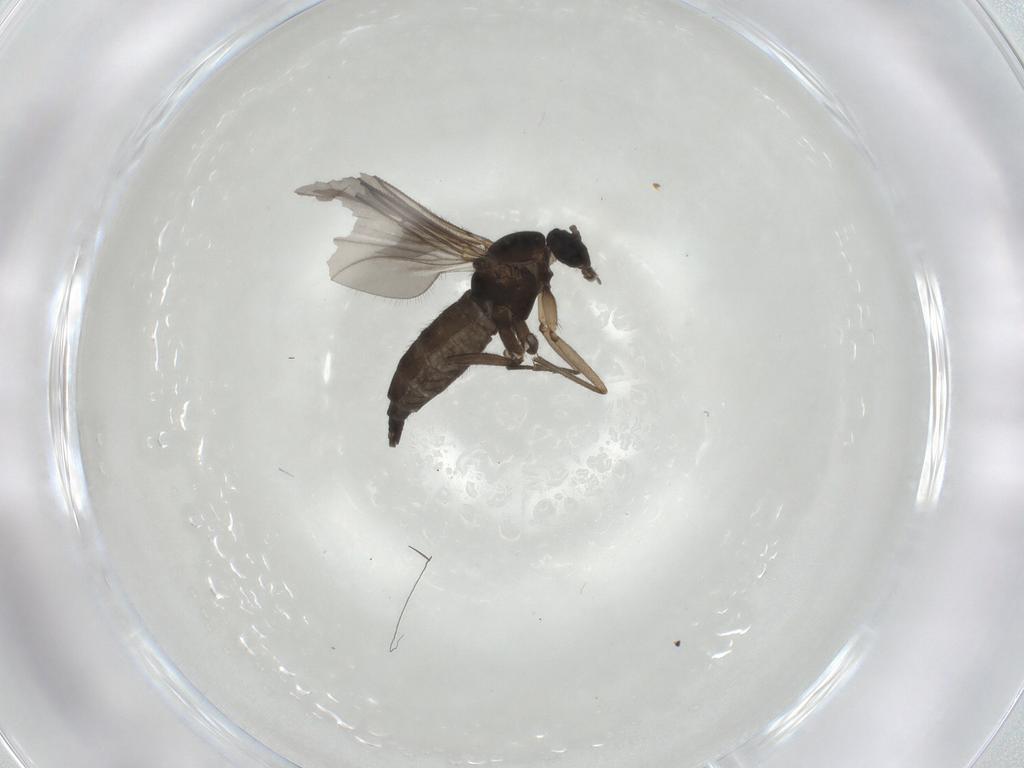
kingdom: Animalia
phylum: Arthropoda
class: Insecta
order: Diptera
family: Sciaridae
